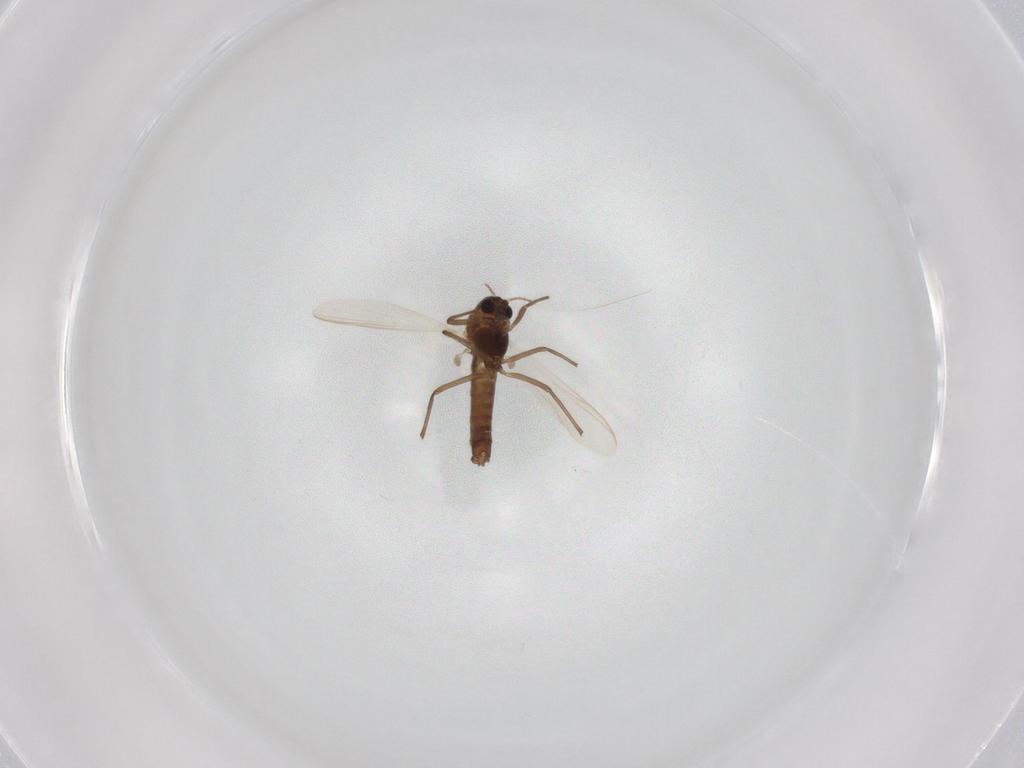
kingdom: Animalia
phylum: Arthropoda
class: Insecta
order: Diptera
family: Chironomidae
